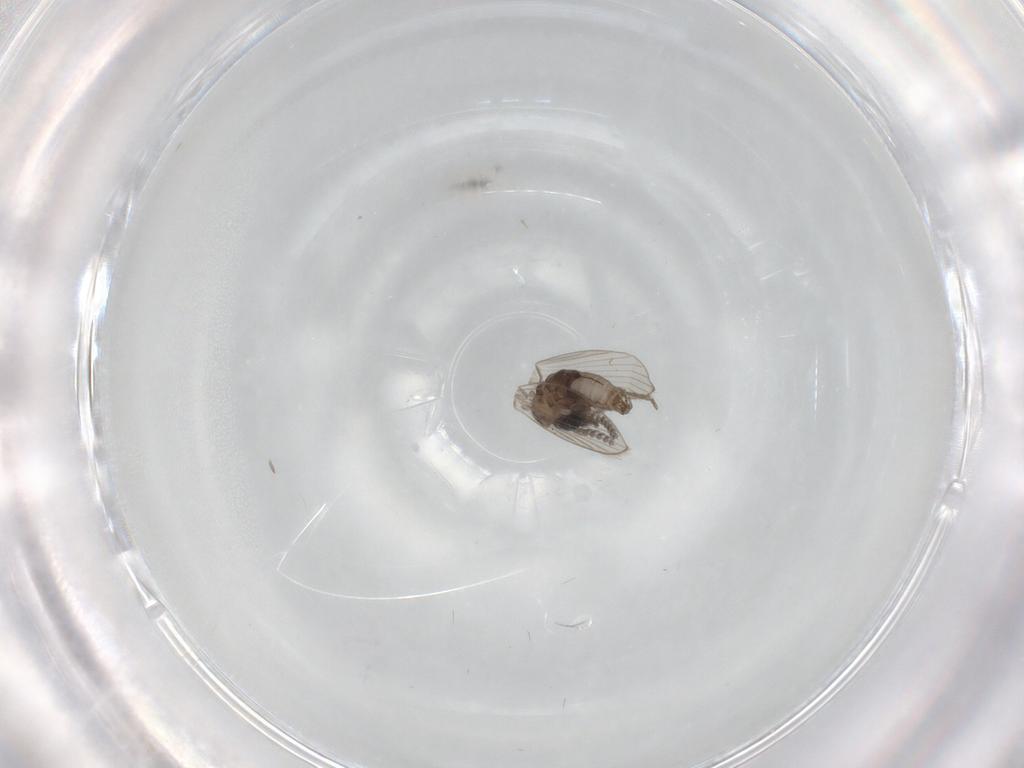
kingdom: Animalia
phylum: Arthropoda
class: Insecta
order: Diptera
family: Psychodidae
